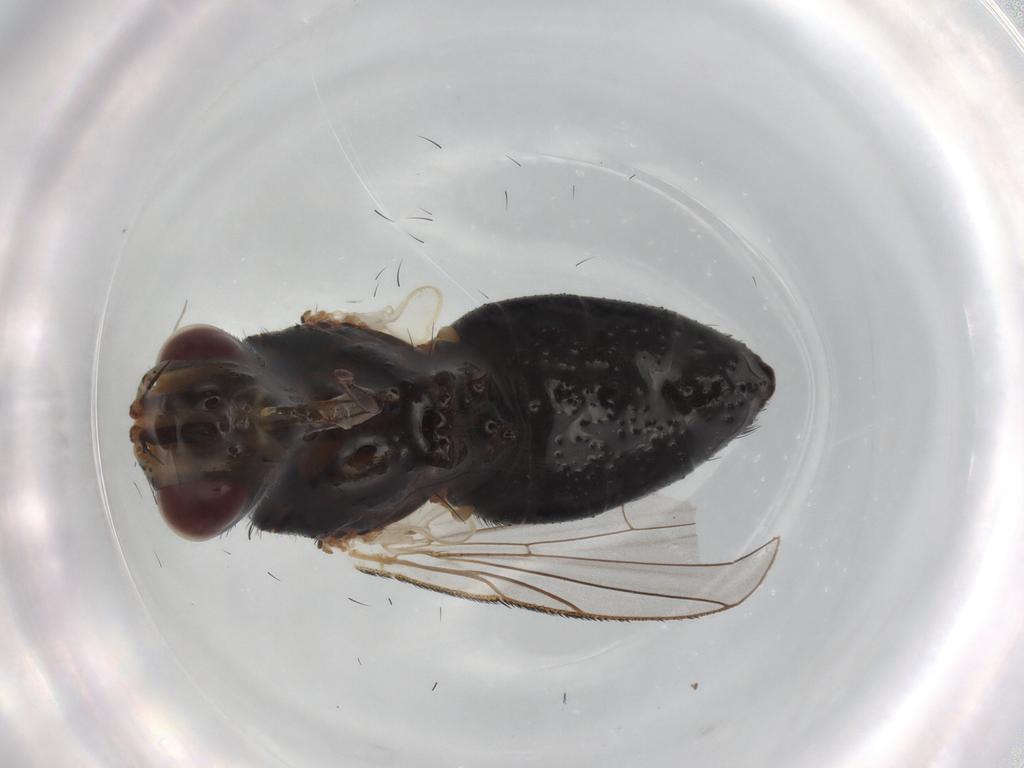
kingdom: Animalia
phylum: Arthropoda
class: Insecta
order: Diptera
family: Tachinidae
